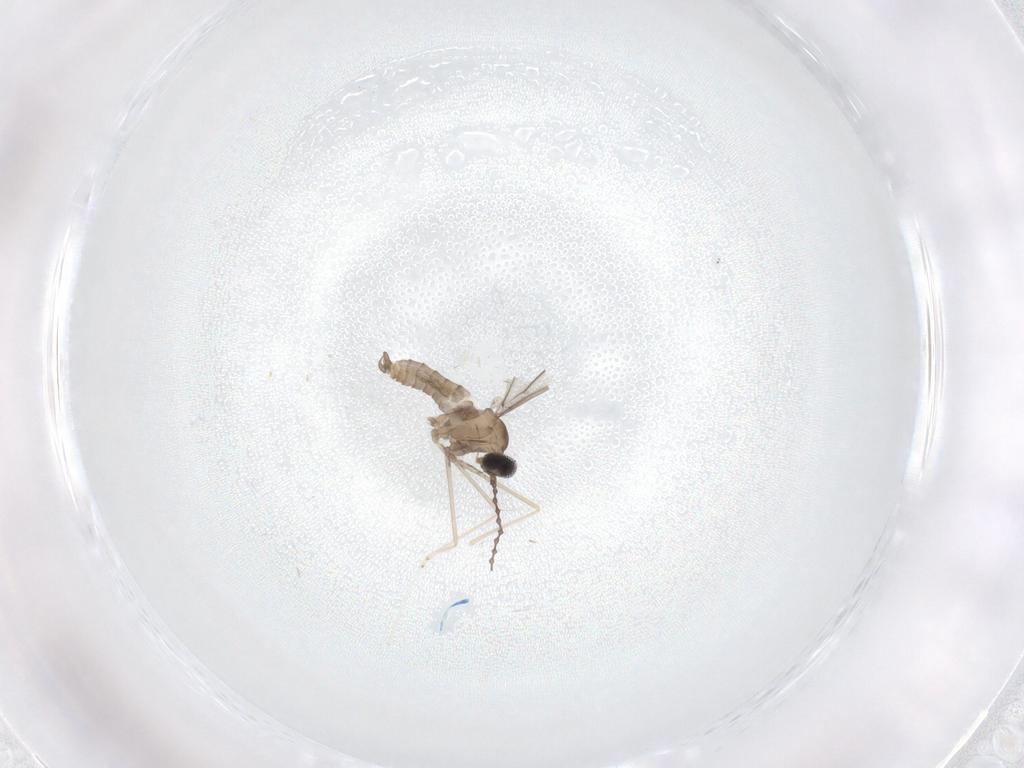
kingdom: Animalia
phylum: Arthropoda
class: Insecta
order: Diptera
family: Cecidomyiidae
